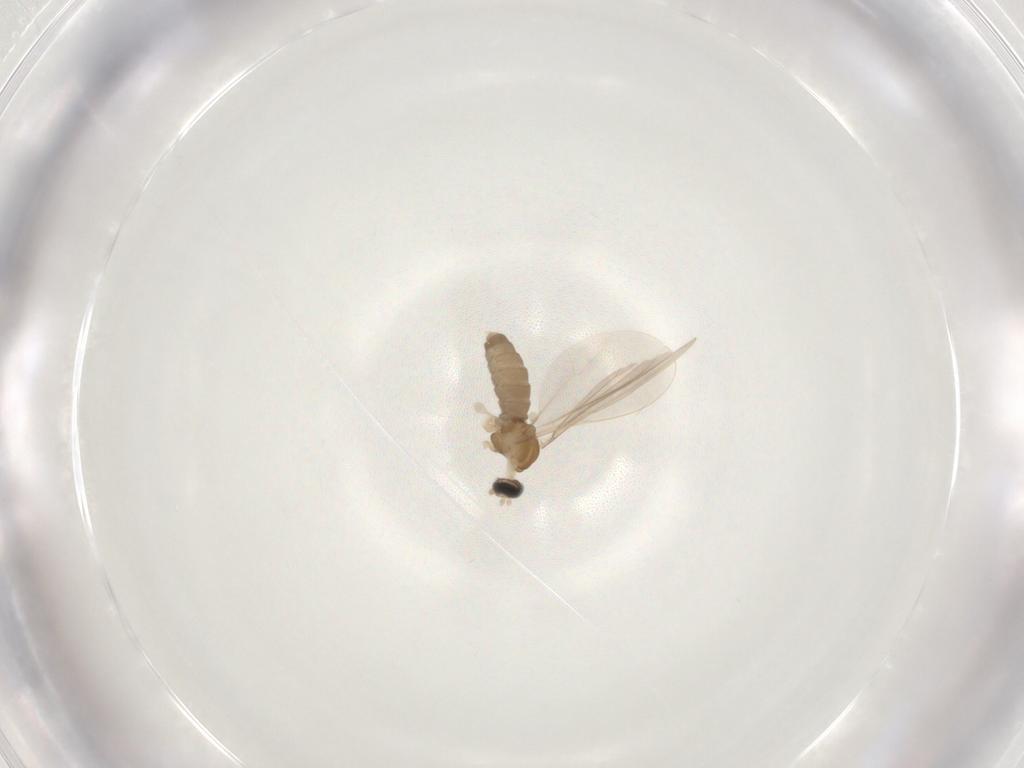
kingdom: Animalia
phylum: Arthropoda
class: Insecta
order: Diptera
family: Cecidomyiidae
